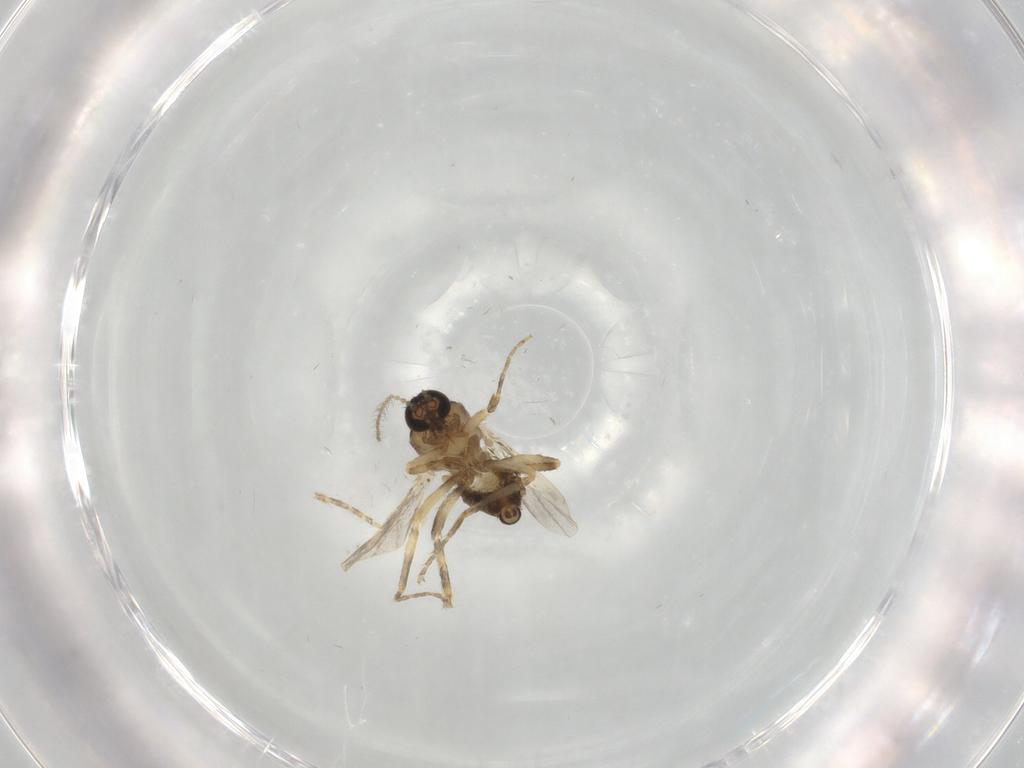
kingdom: Animalia
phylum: Arthropoda
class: Insecta
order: Diptera
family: Ceratopogonidae
